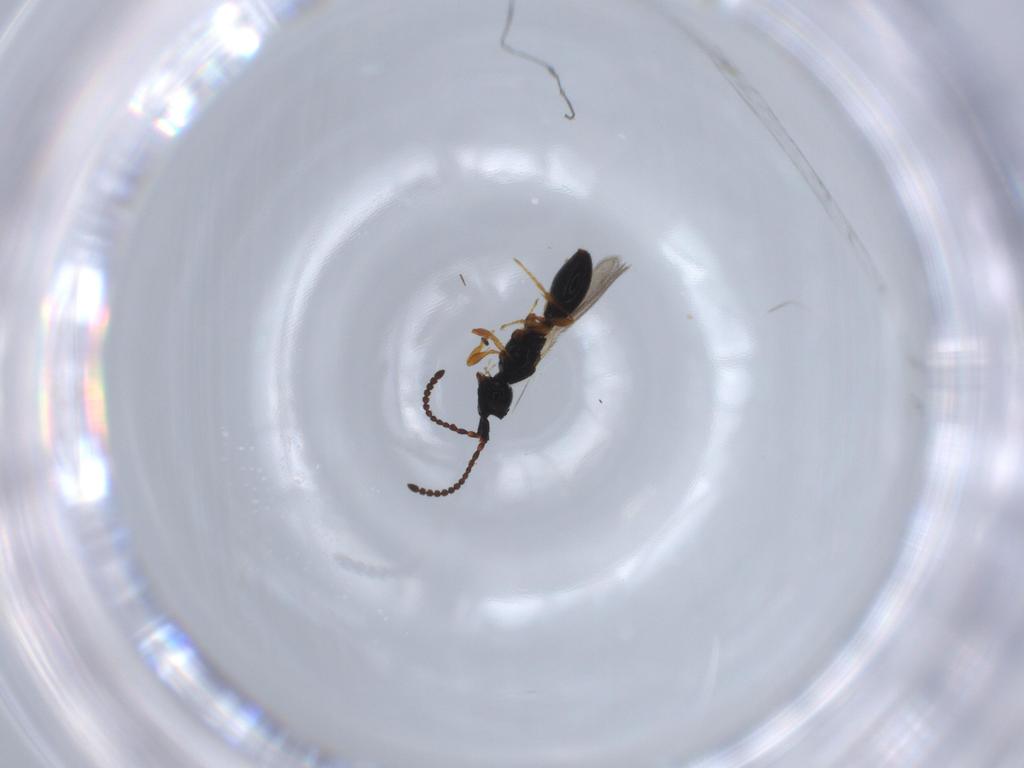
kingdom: Animalia
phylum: Arthropoda
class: Insecta
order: Hymenoptera
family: Diapriidae
